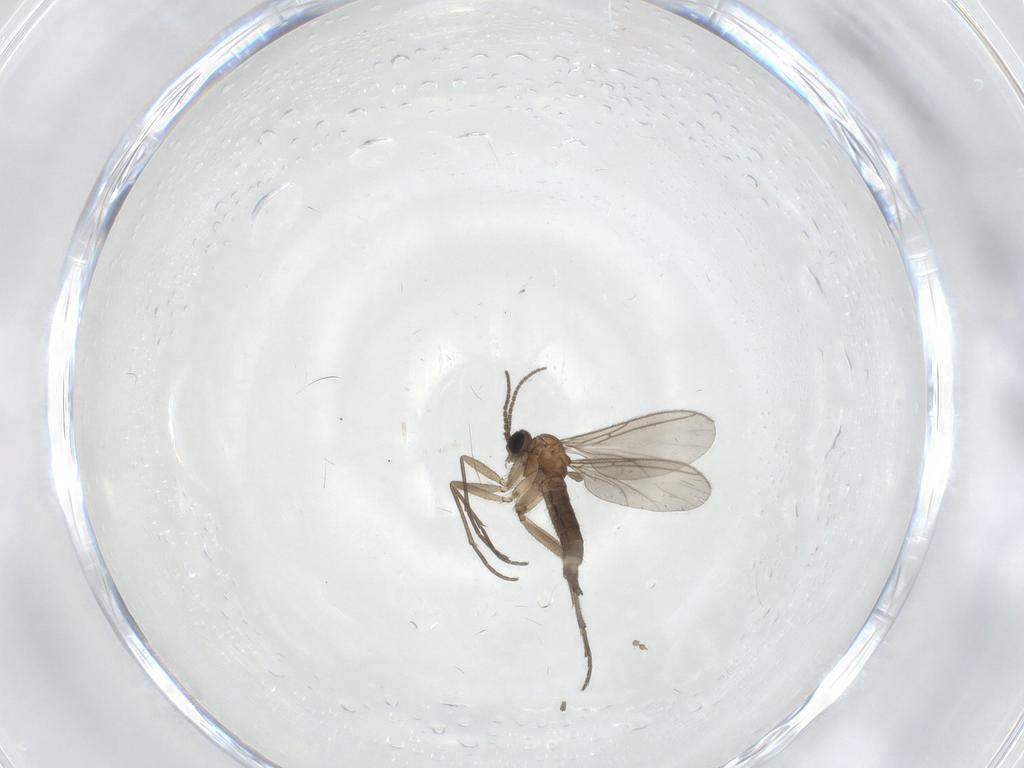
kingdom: Animalia
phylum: Arthropoda
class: Insecta
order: Diptera
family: Sciaridae
